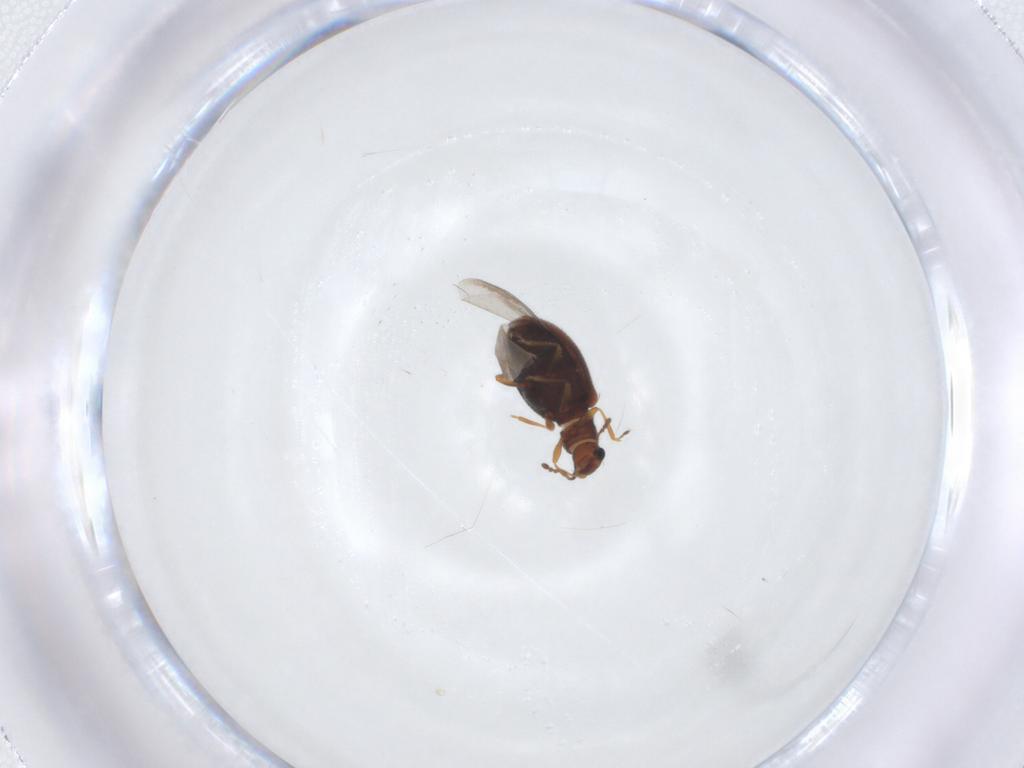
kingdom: Animalia
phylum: Arthropoda
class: Insecta
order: Coleoptera
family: Latridiidae
